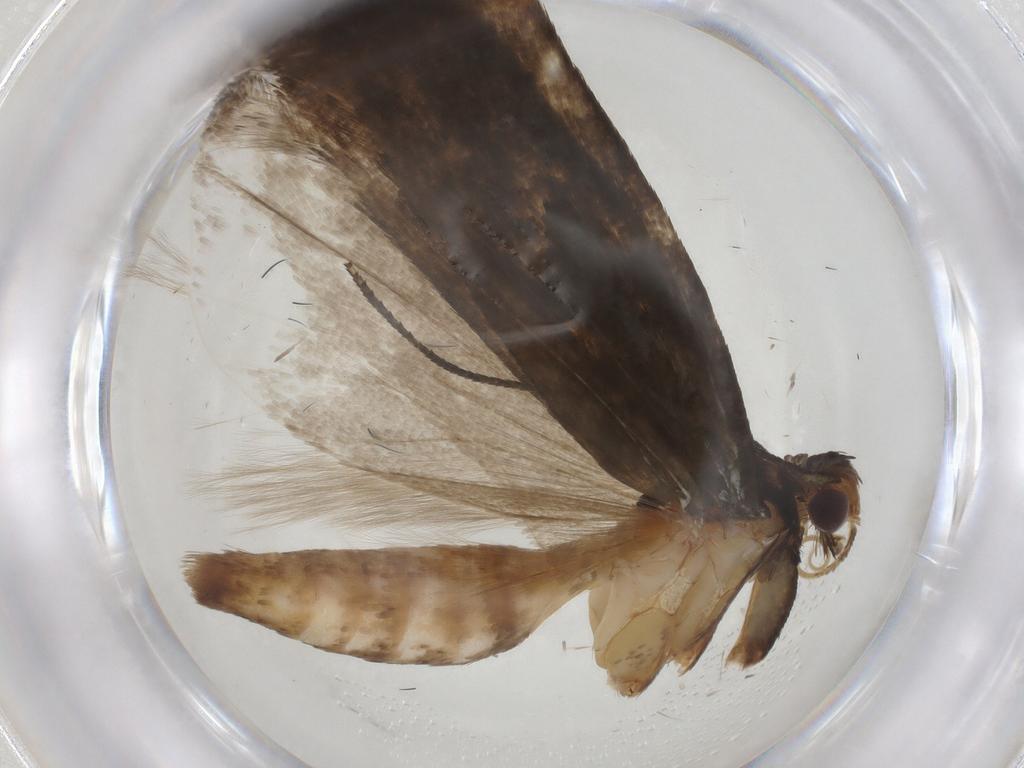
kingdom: Animalia
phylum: Arthropoda
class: Insecta
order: Lepidoptera
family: Gelechiidae
